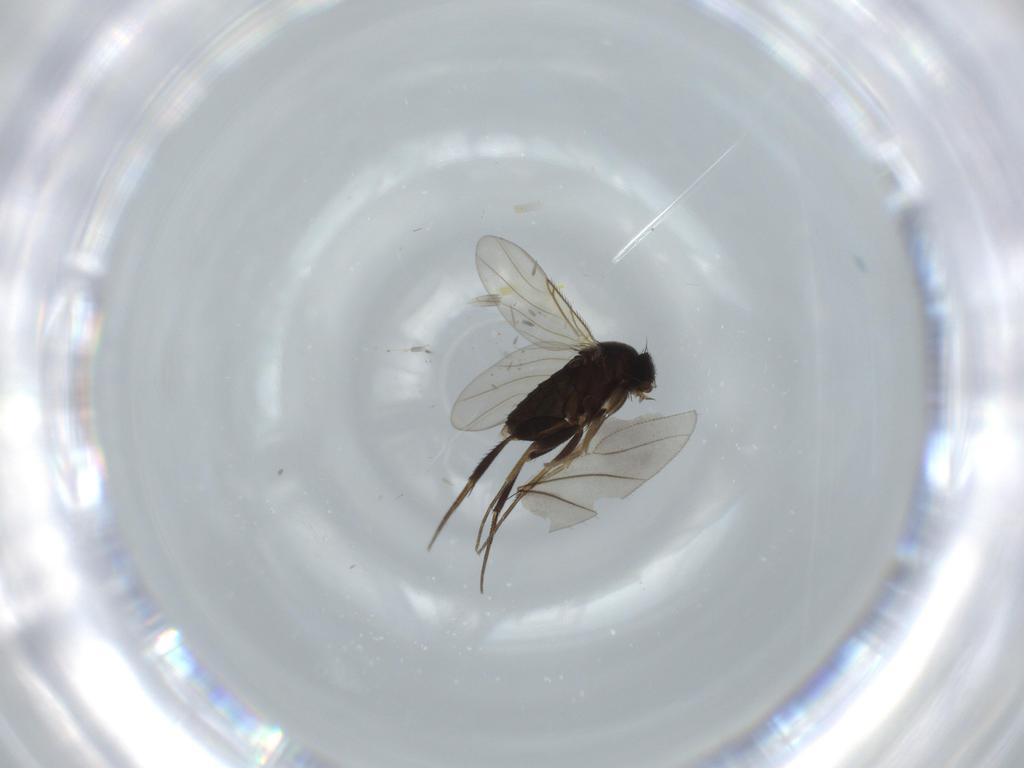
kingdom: Animalia
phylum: Arthropoda
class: Insecta
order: Diptera
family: Phoridae
